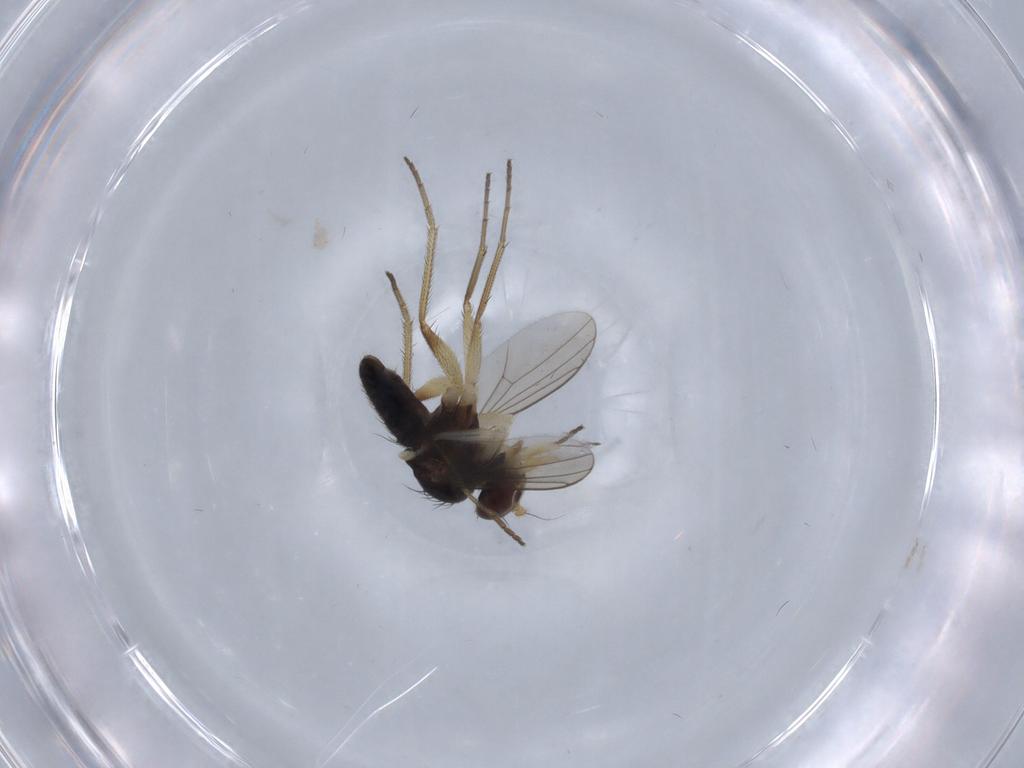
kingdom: Animalia
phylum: Arthropoda
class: Insecta
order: Diptera
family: Dolichopodidae
